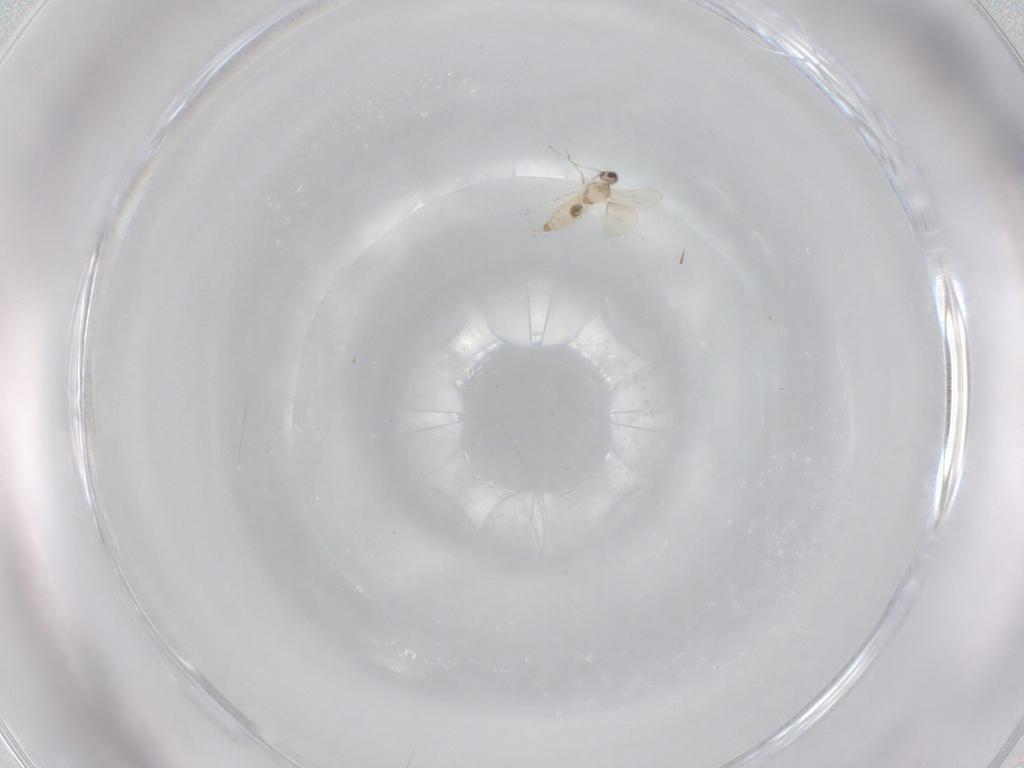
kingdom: Animalia
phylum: Arthropoda
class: Insecta
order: Diptera
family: Cecidomyiidae
